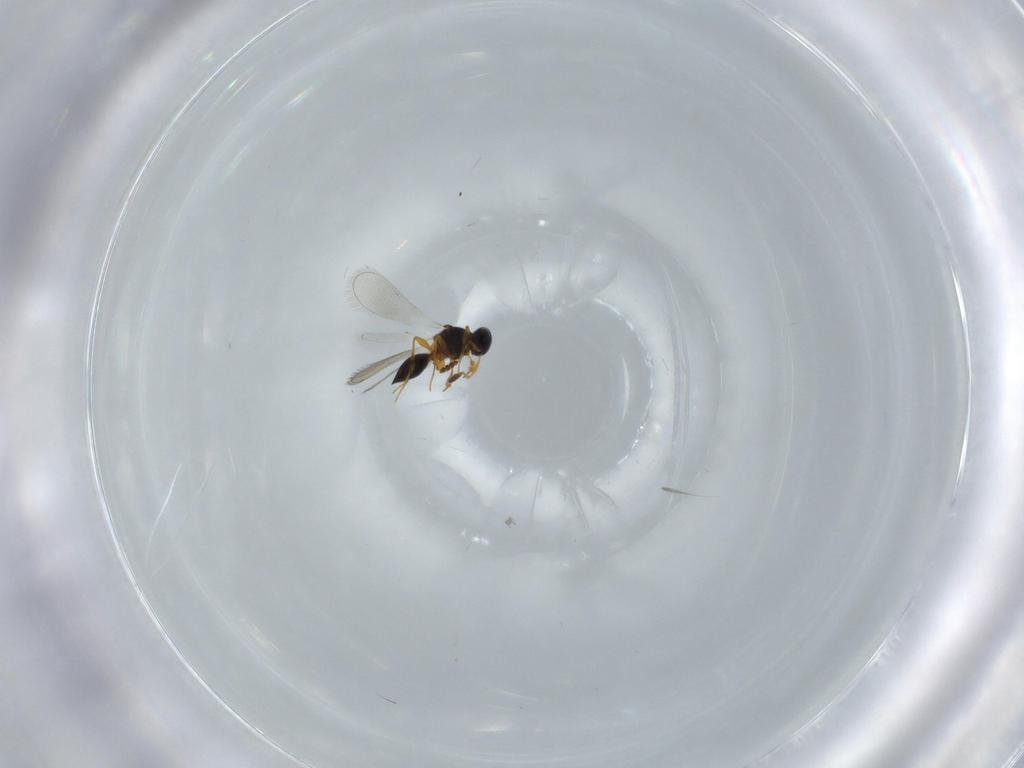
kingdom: Animalia
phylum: Arthropoda
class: Insecta
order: Hymenoptera
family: Platygastridae
